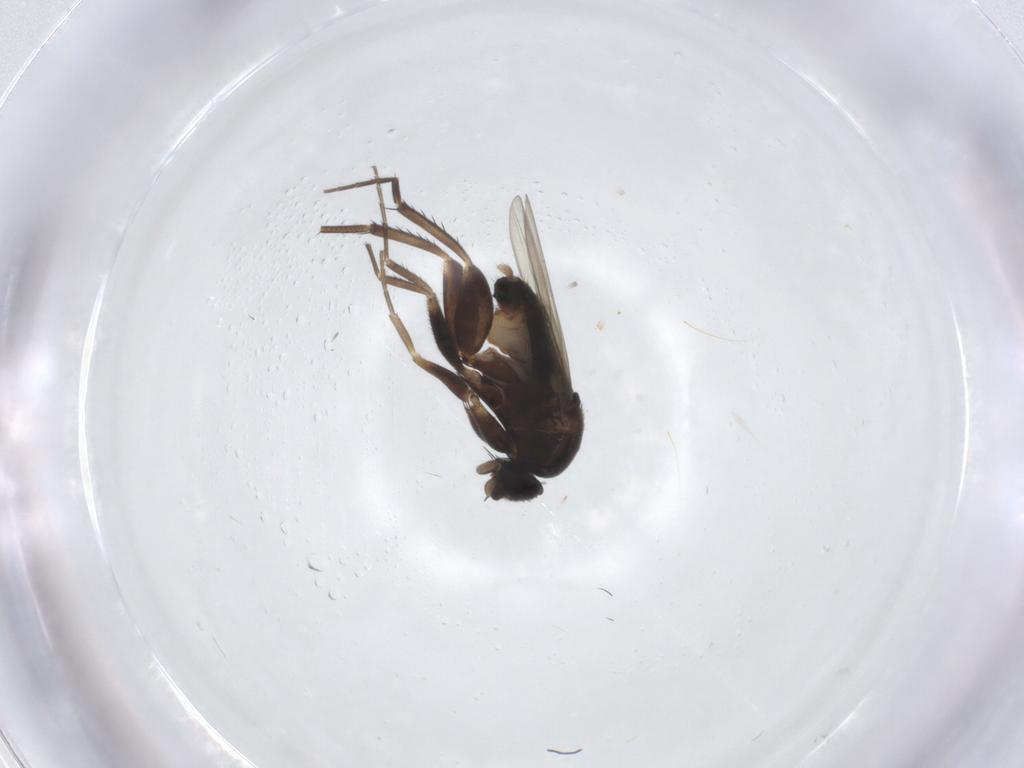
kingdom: Animalia
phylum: Arthropoda
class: Insecta
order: Diptera
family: Phoridae
